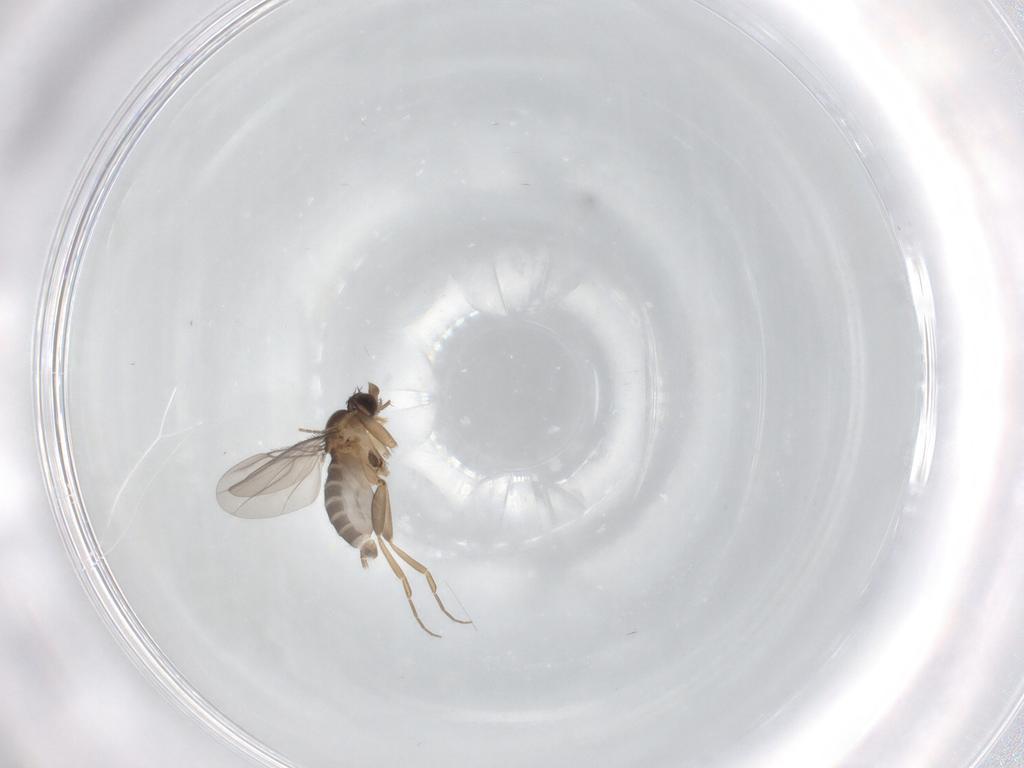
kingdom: Animalia
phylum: Arthropoda
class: Insecta
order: Diptera
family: Phoridae
